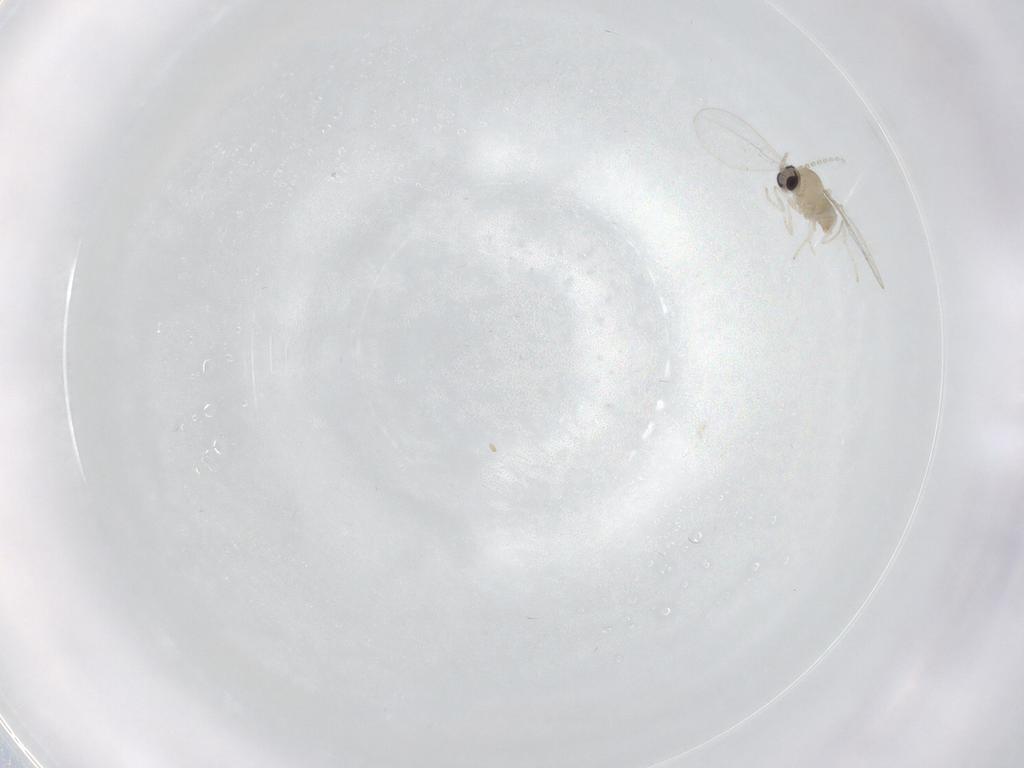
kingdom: Animalia
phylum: Arthropoda
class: Insecta
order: Diptera
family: Cecidomyiidae
